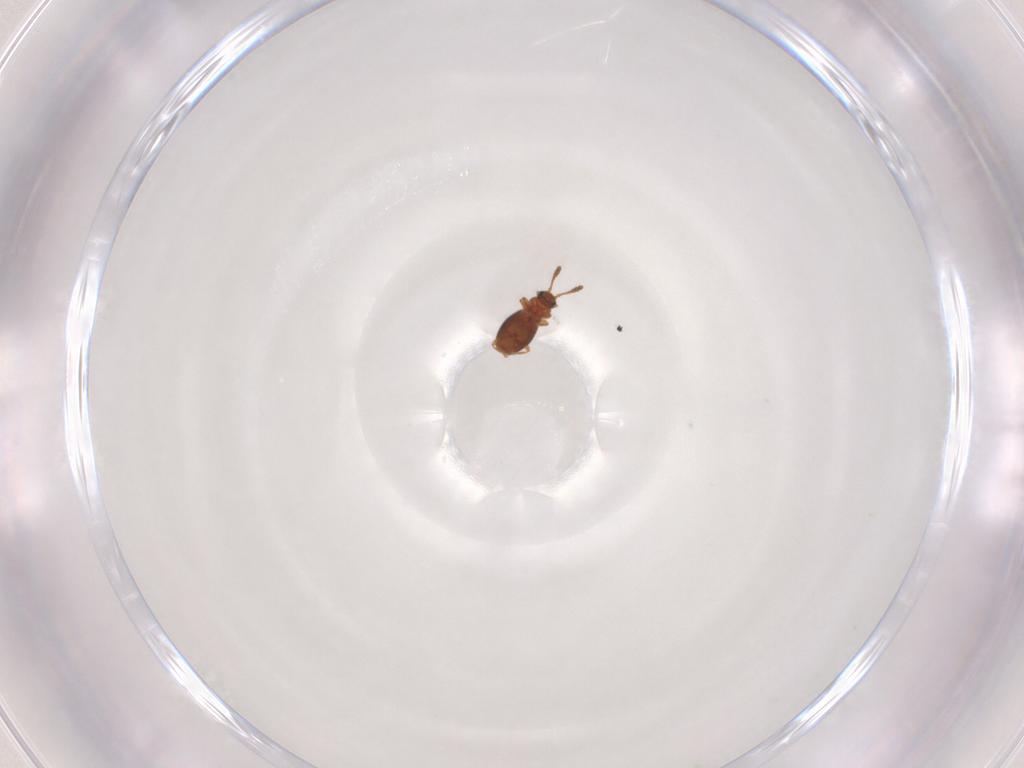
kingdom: Animalia
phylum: Arthropoda
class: Insecta
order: Coleoptera
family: Staphylinidae
